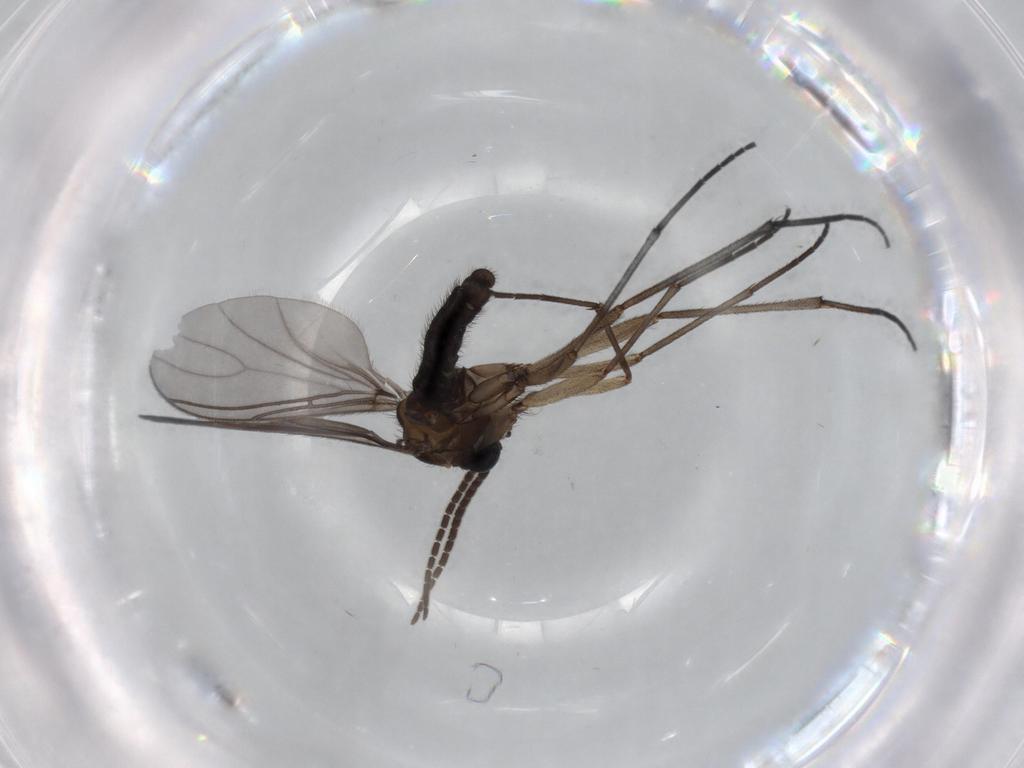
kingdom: Animalia
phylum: Arthropoda
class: Insecta
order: Diptera
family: Sciaridae
